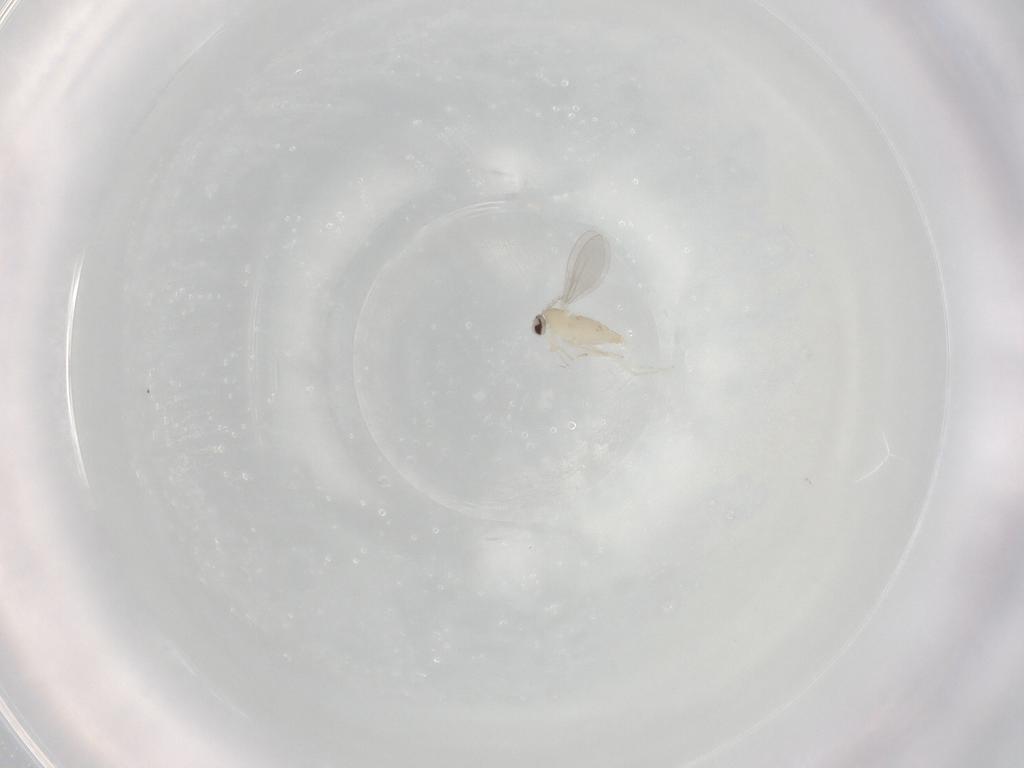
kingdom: Animalia
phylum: Arthropoda
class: Insecta
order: Diptera
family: Cecidomyiidae
